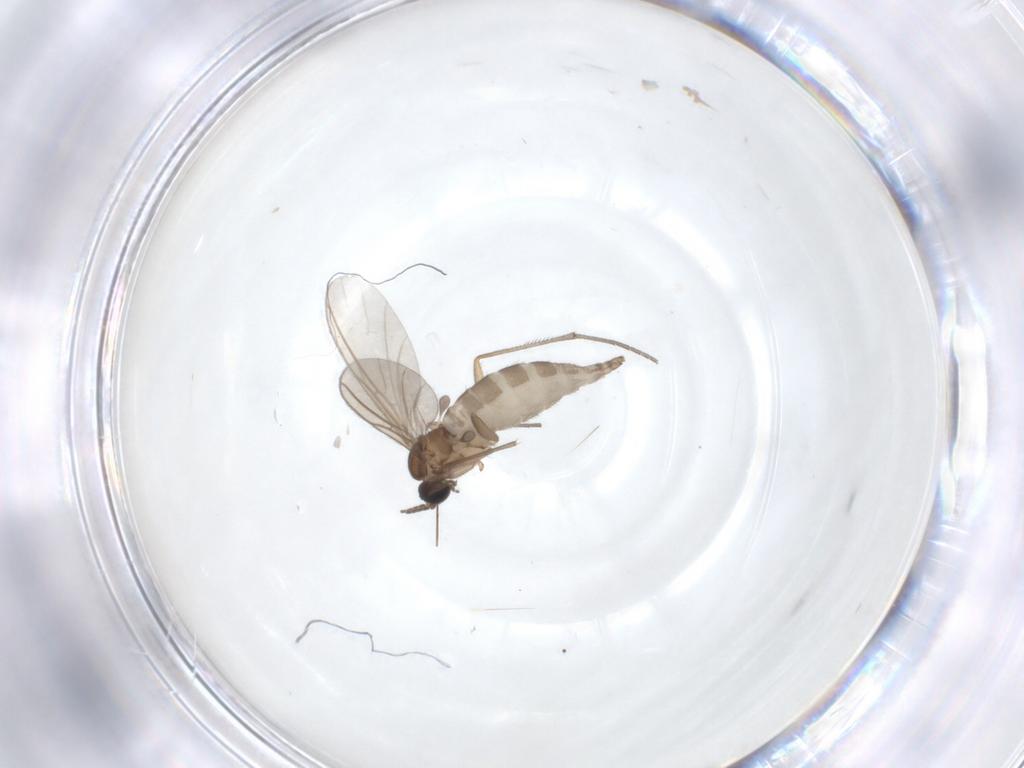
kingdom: Animalia
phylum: Arthropoda
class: Insecta
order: Diptera
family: Sciaridae
